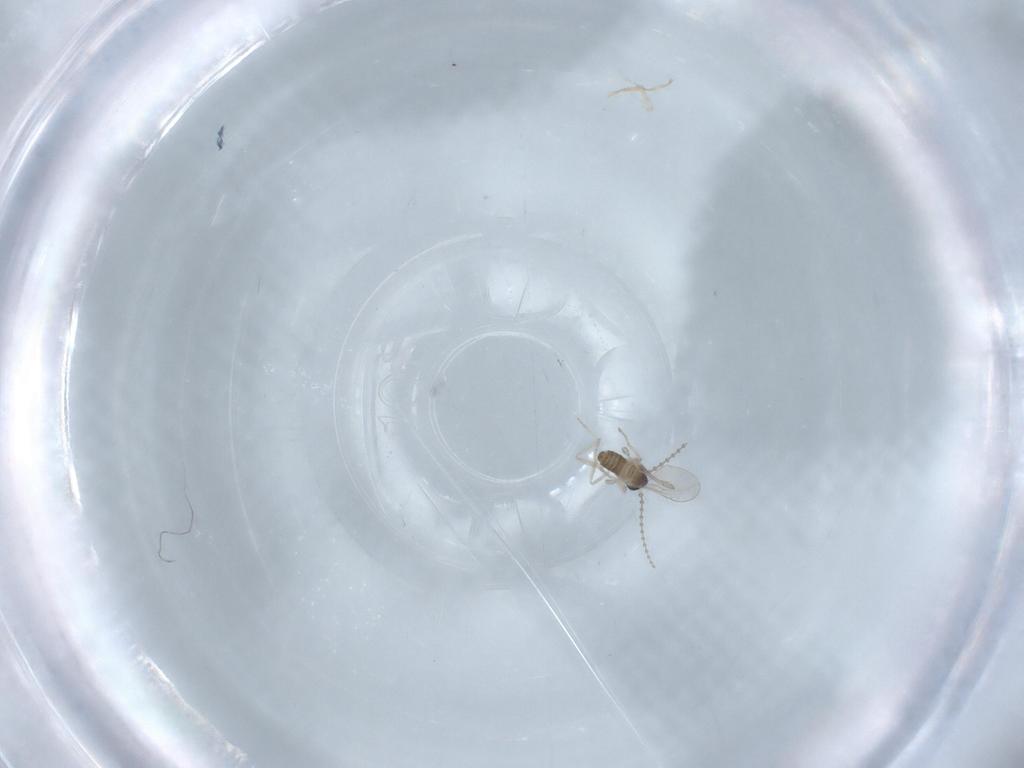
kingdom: Animalia
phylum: Arthropoda
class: Insecta
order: Diptera
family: Cecidomyiidae
